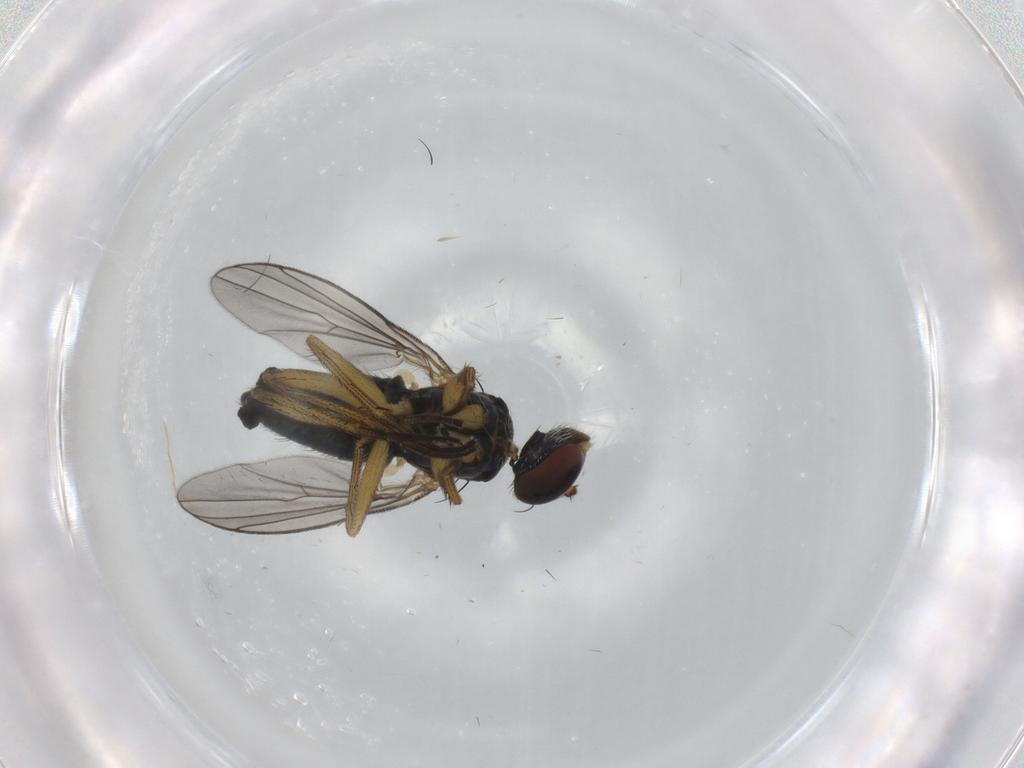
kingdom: Animalia
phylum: Arthropoda
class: Insecta
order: Diptera
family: Dolichopodidae
